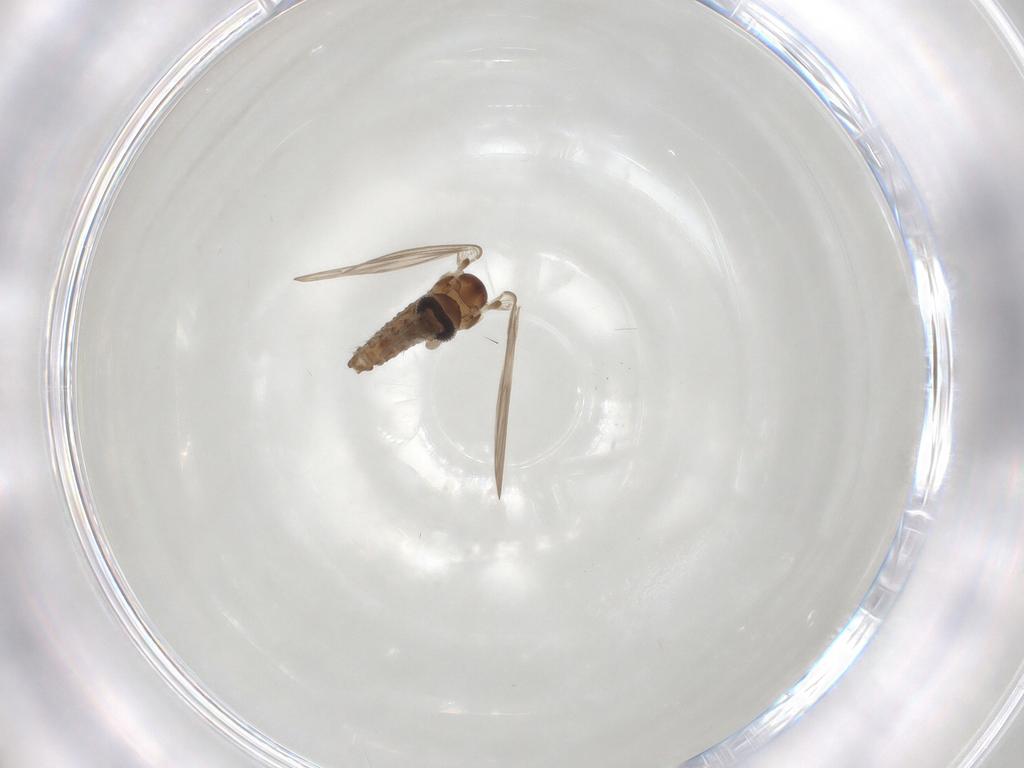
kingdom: Animalia
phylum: Arthropoda
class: Insecta
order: Diptera
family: Psychodidae
